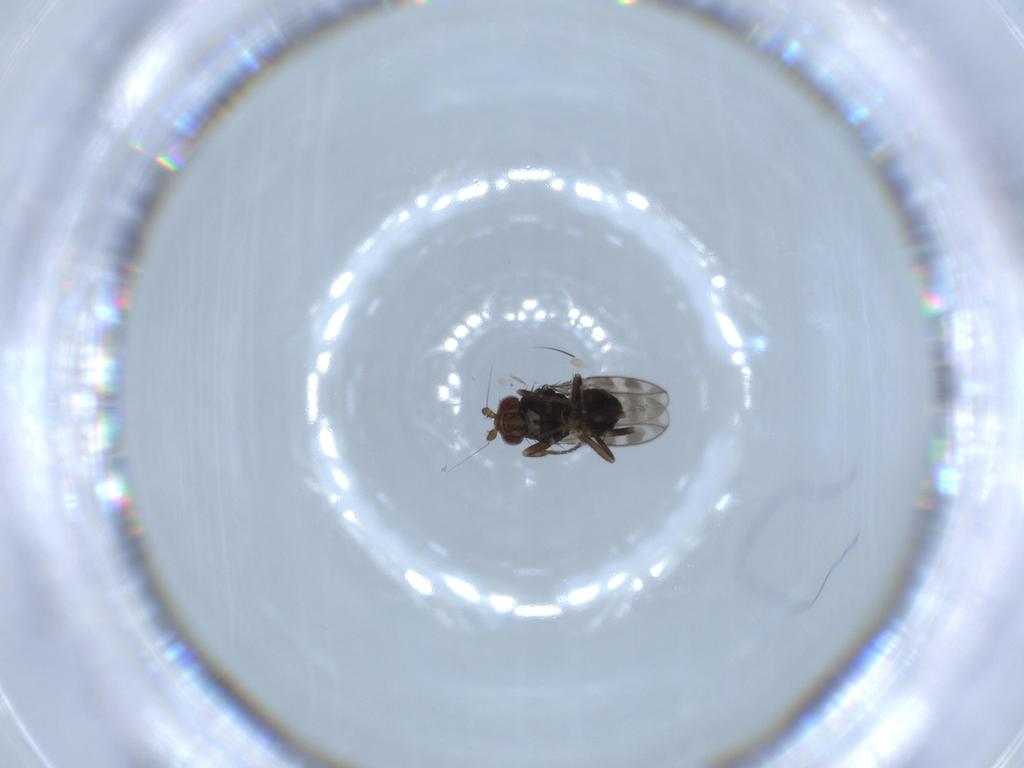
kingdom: Animalia
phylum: Arthropoda
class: Insecta
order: Diptera
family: Sphaeroceridae
